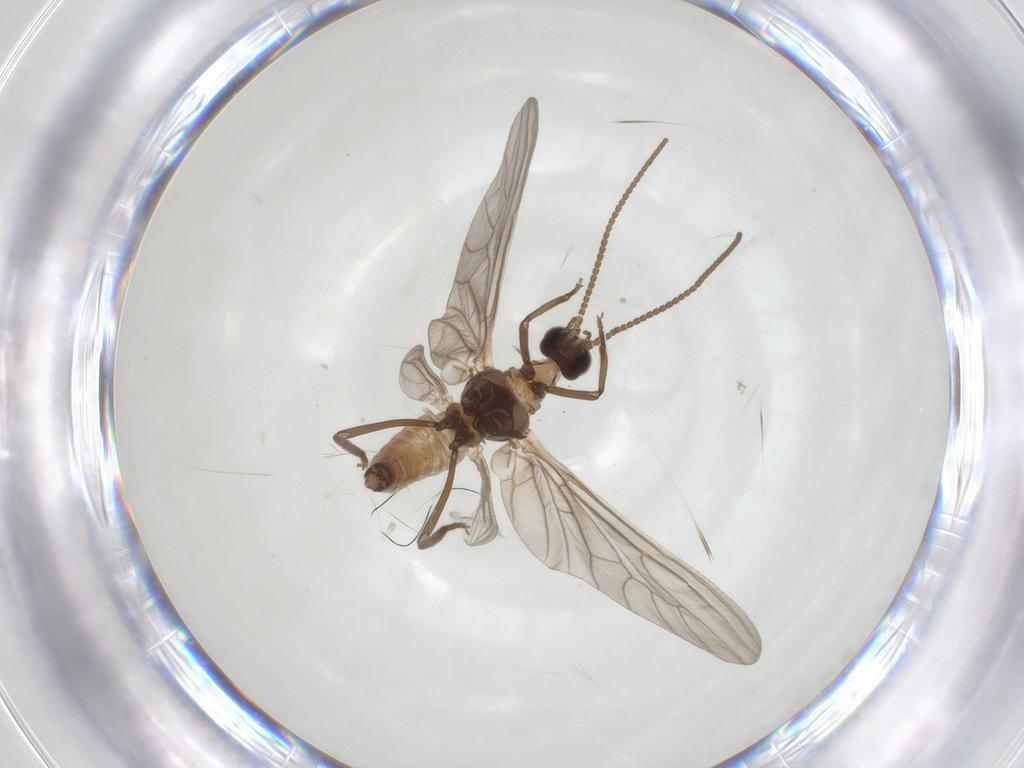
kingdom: Animalia
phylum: Arthropoda
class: Insecta
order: Neuroptera
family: Coniopterygidae
